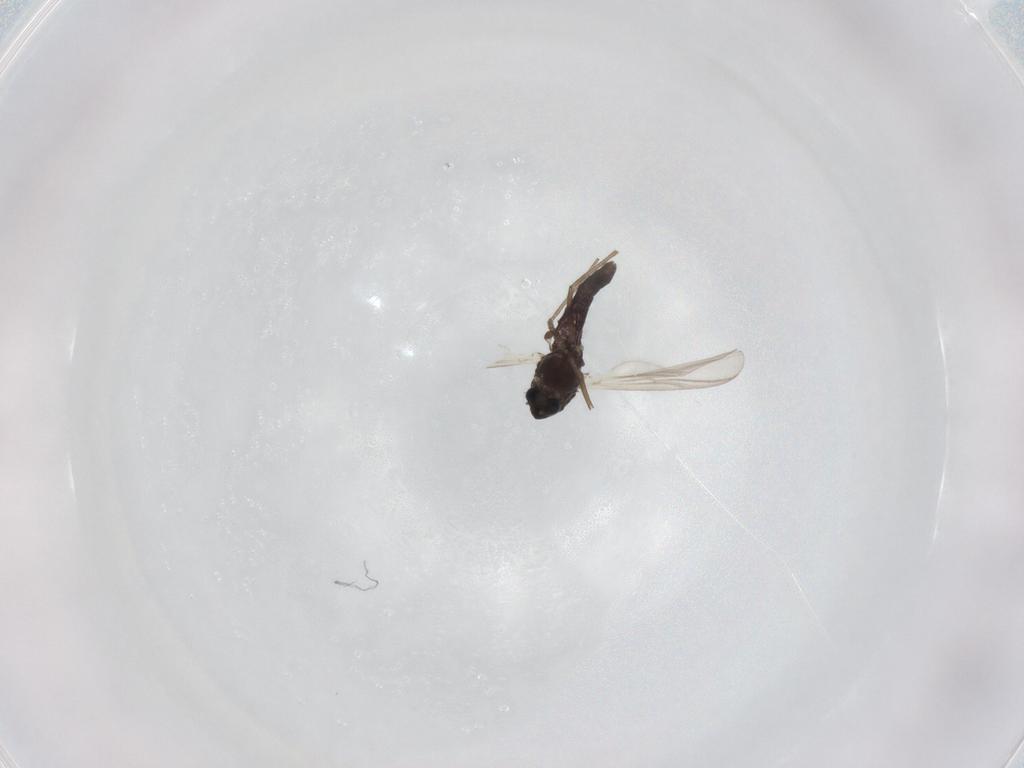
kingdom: Animalia
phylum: Arthropoda
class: Insecta
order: Diptera
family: Chironomidae
